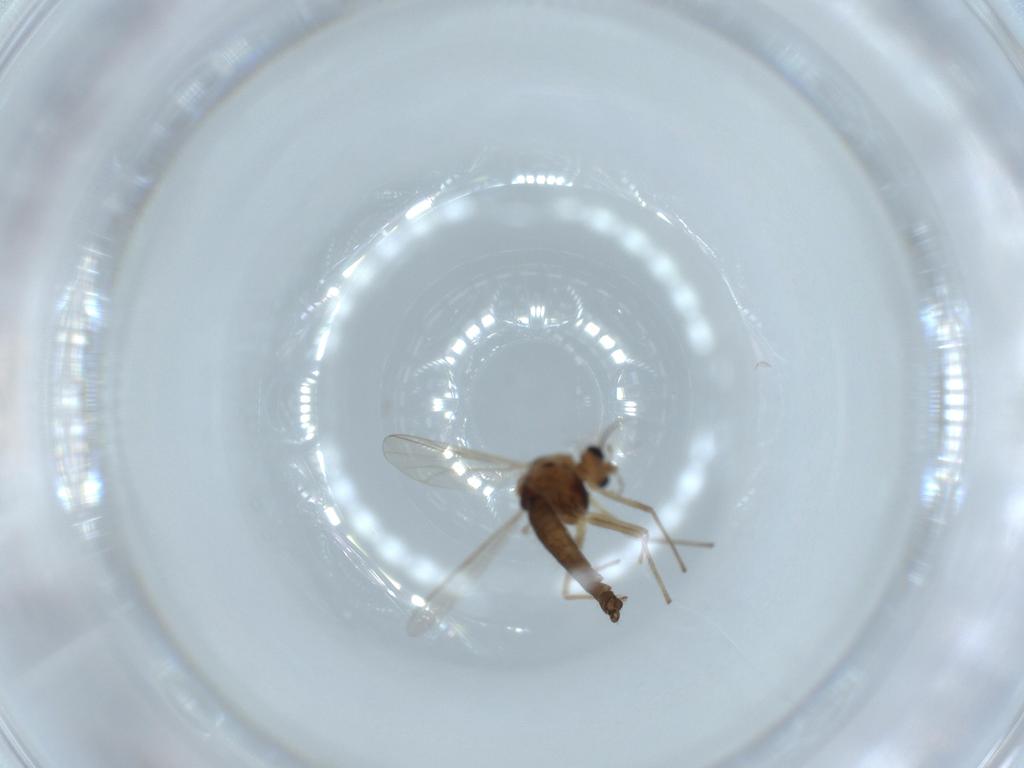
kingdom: Animalia
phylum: Arthropoda
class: Insecta
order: Diptera
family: Chironomidae
